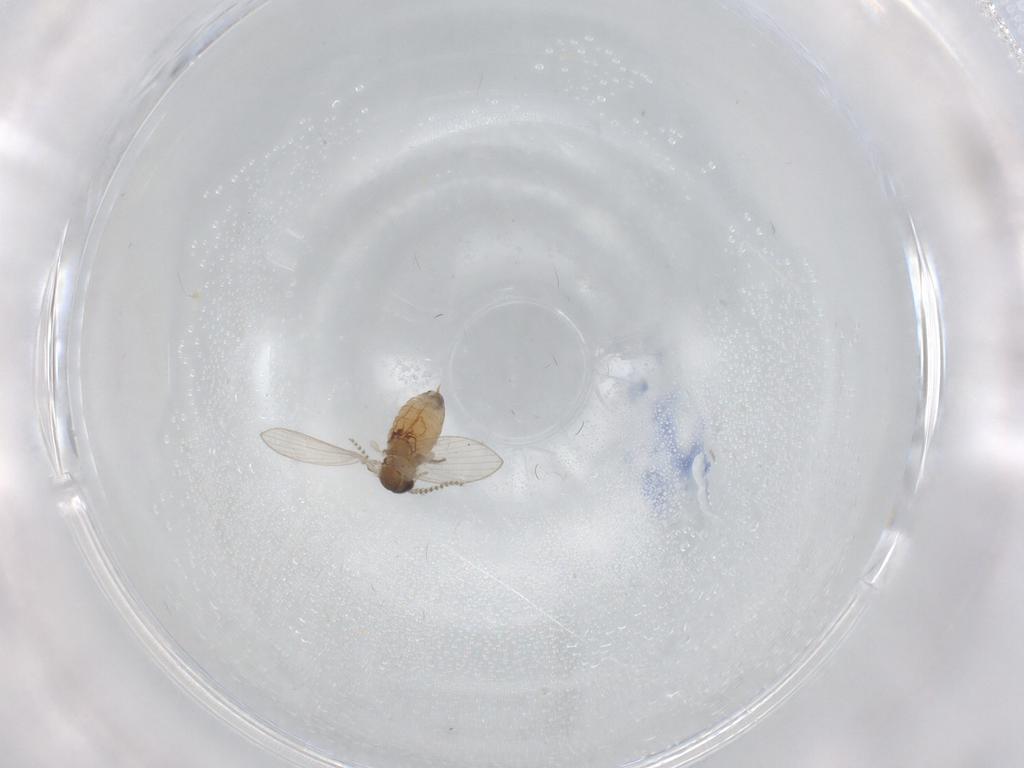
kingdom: Animalia
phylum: Arthropoda
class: Insecta
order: Diptera
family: Psychodidae
